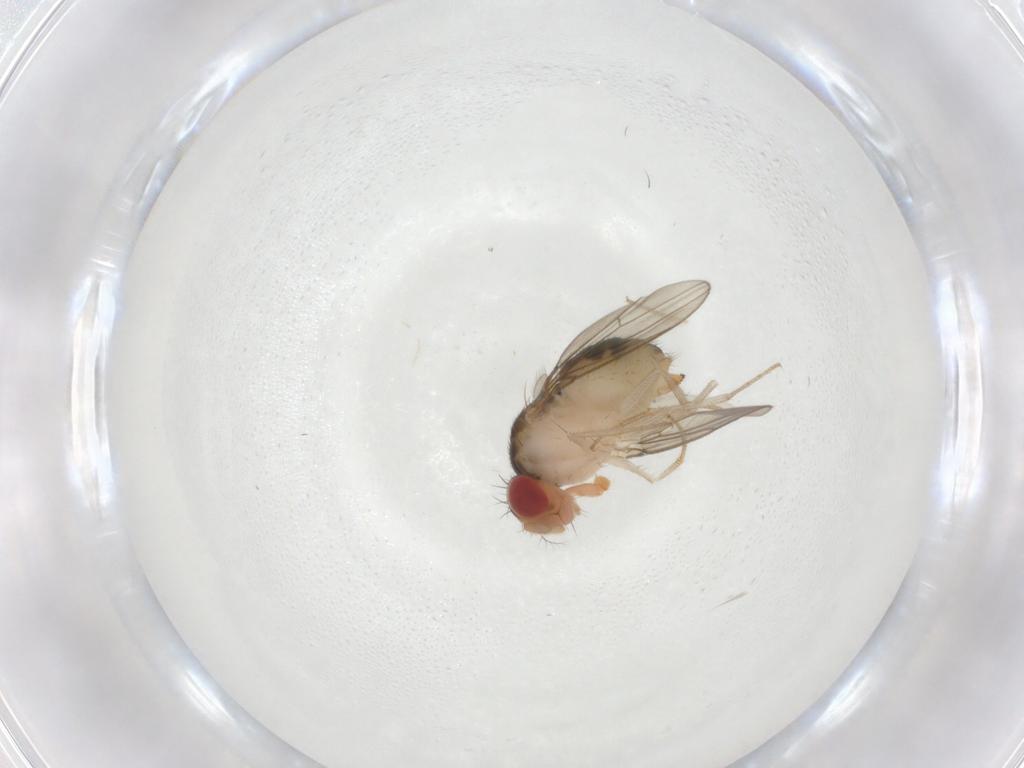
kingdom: Animalia
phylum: Arthropoda
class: Insecta
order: Diptera
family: Drosophilidae
